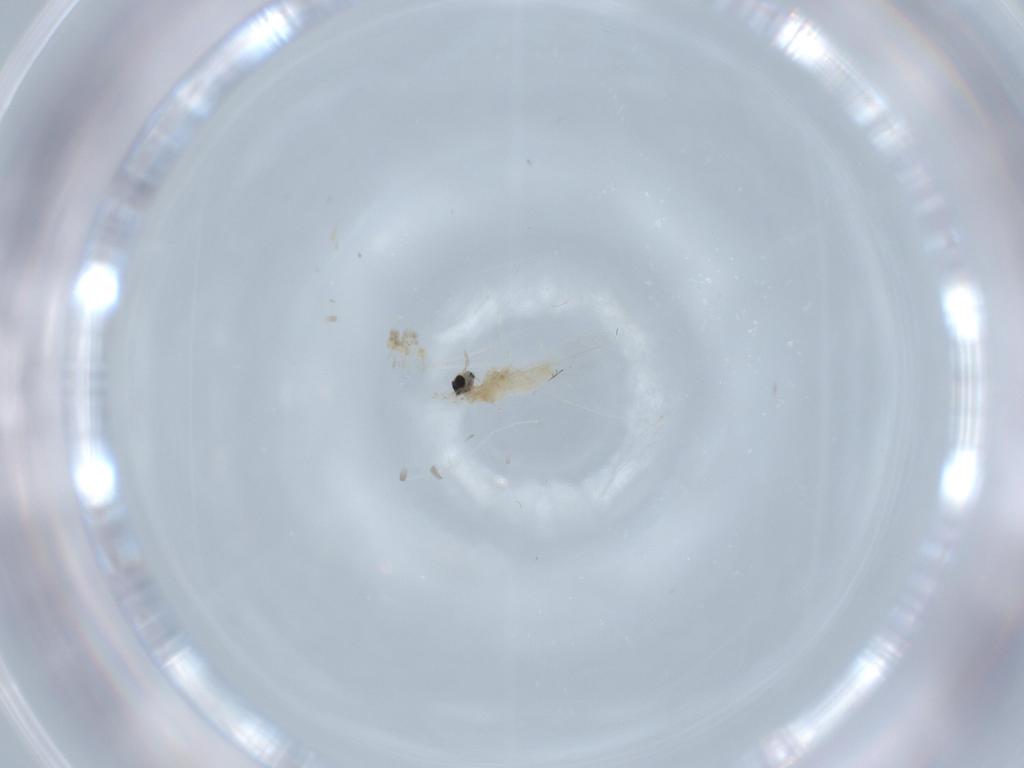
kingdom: Animalia
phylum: Arthropoda
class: Insecta
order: Diptera
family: Cecidomyiidae
